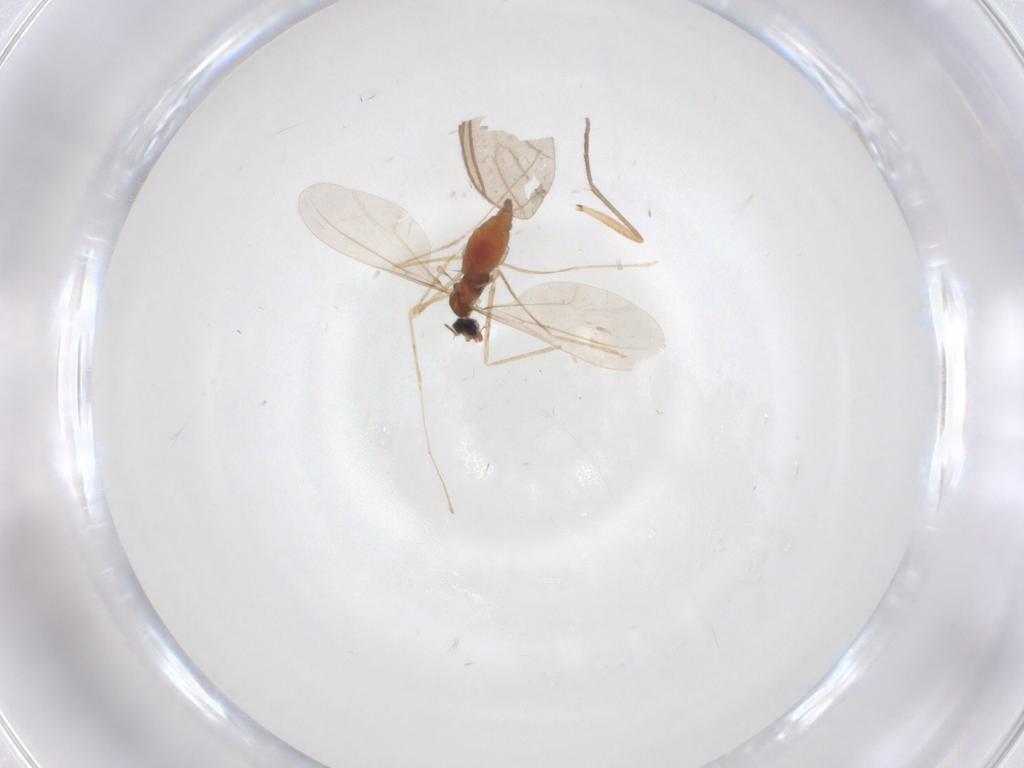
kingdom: Animalia
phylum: Arthropoda
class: Insecta
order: Diptera
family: Cecidomyiidae
